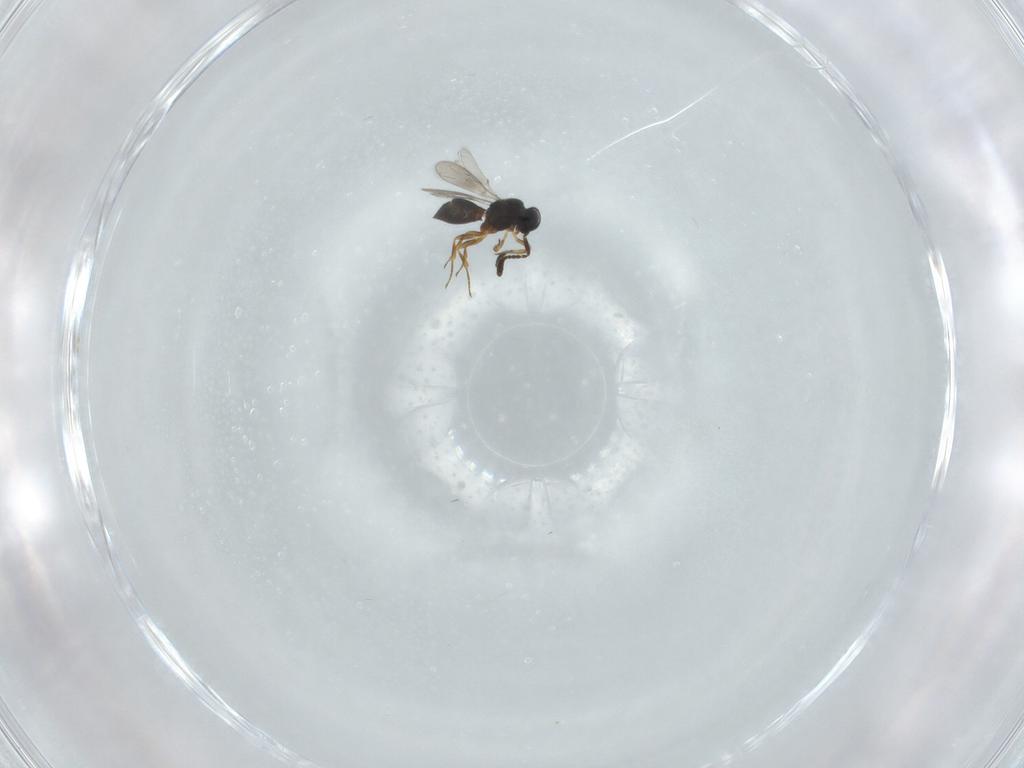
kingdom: Animalia
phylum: Arthropoda
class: Insecta
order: Hymenoptera
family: Scelionidae
